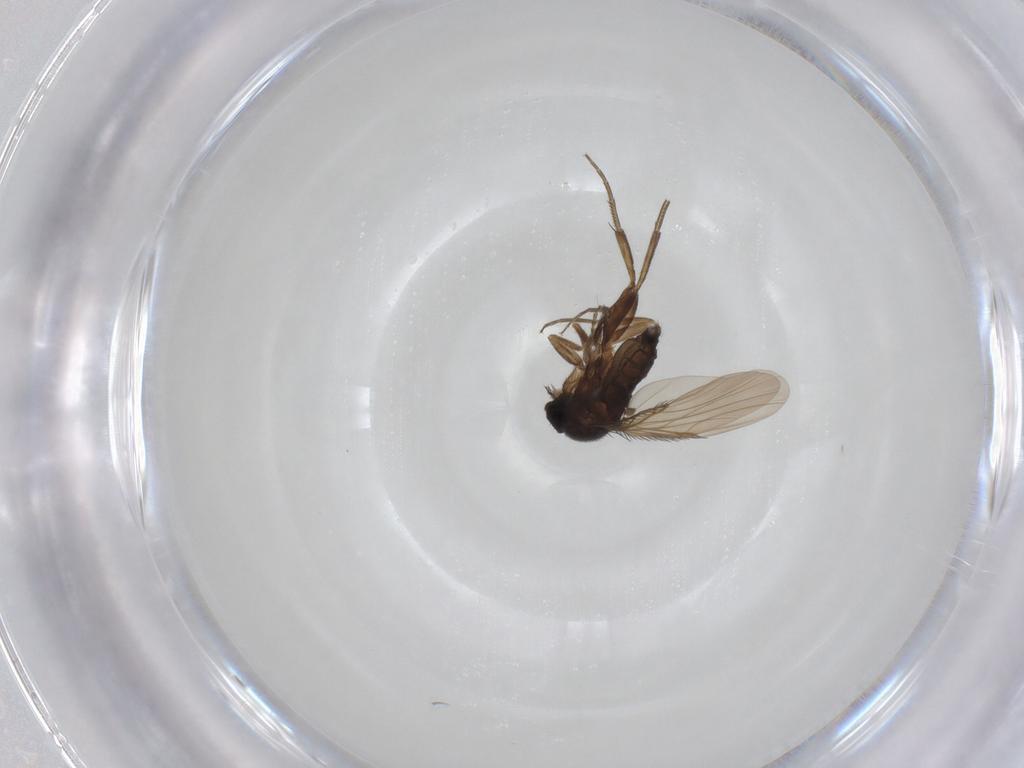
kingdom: Animalia
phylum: Arthropoda
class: Insecta
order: Diptera
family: Phoridae
